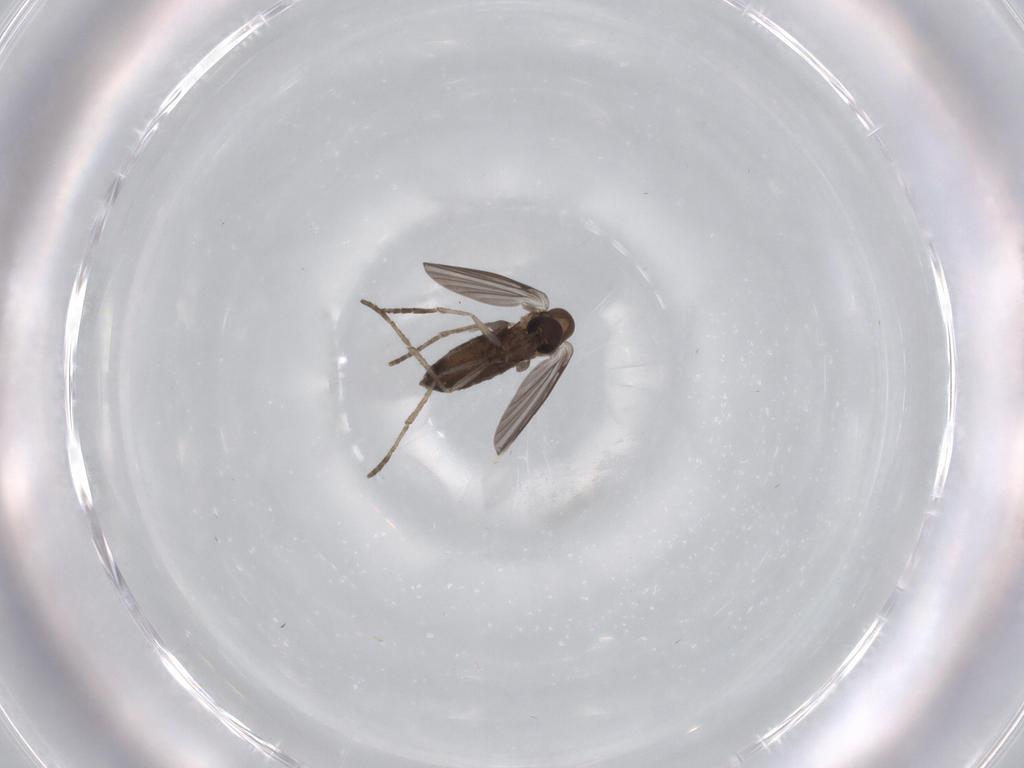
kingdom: Animalia
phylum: Arthropoda
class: Insecta
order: Diptera
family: Psychodidae
